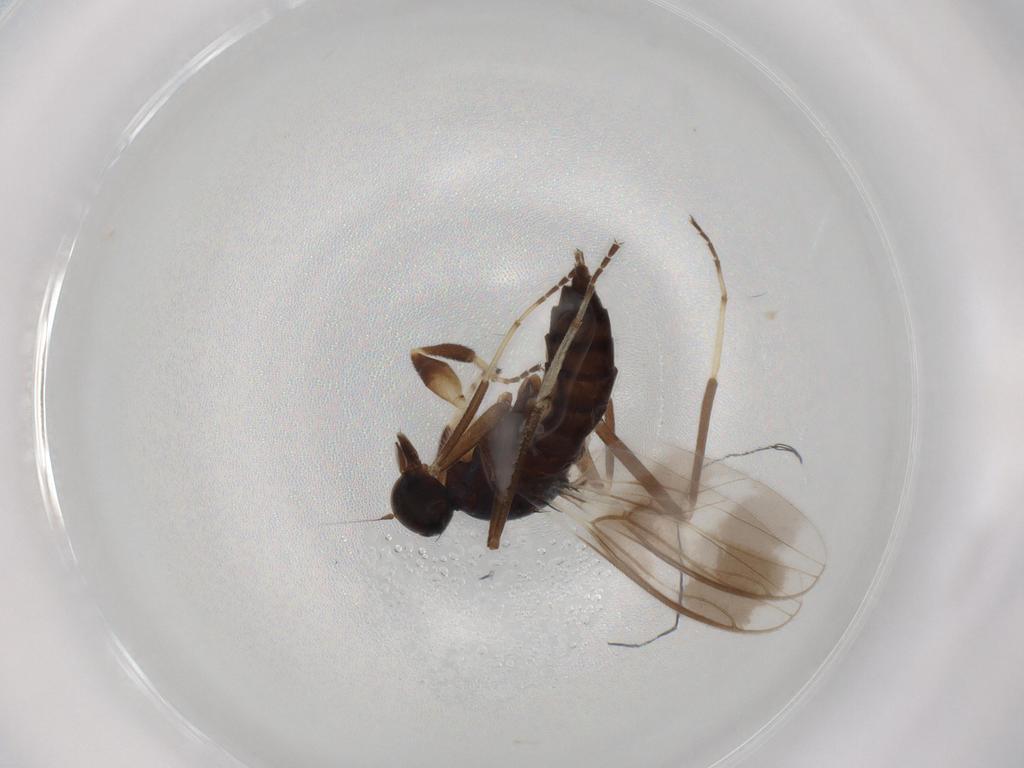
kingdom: Animalia
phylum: Arthropoda
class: Insecta
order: Diptera
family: Hybotidae
